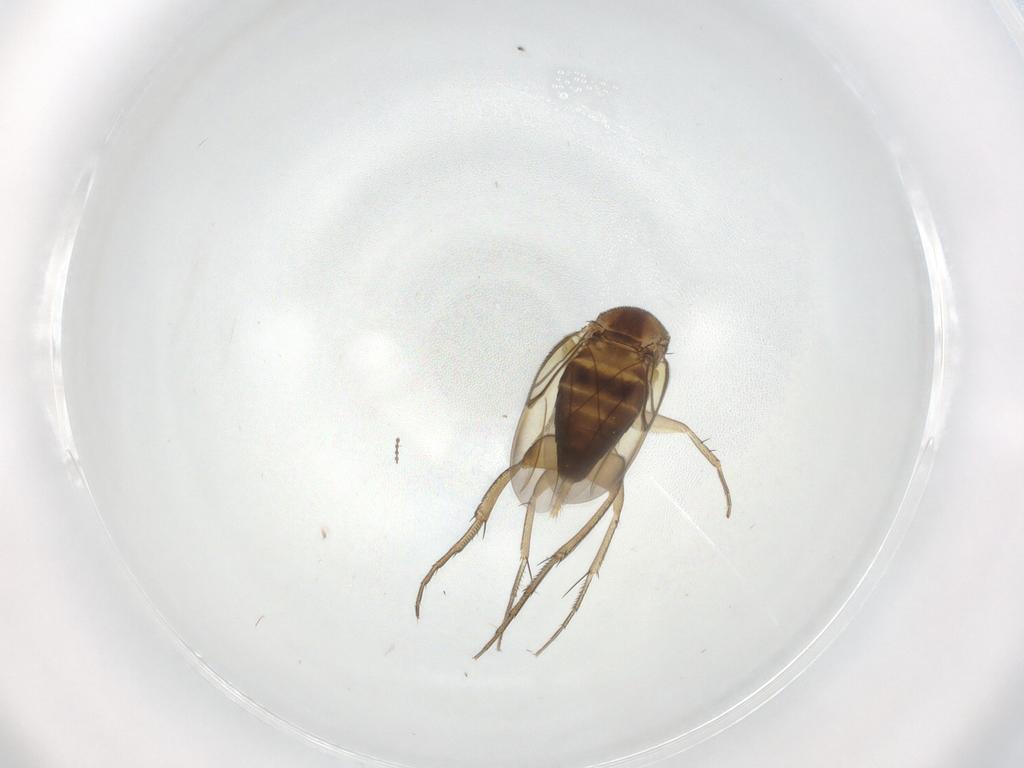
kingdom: Animalia
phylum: Arthropoda
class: Insecta
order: Diptera
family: Phoridae
